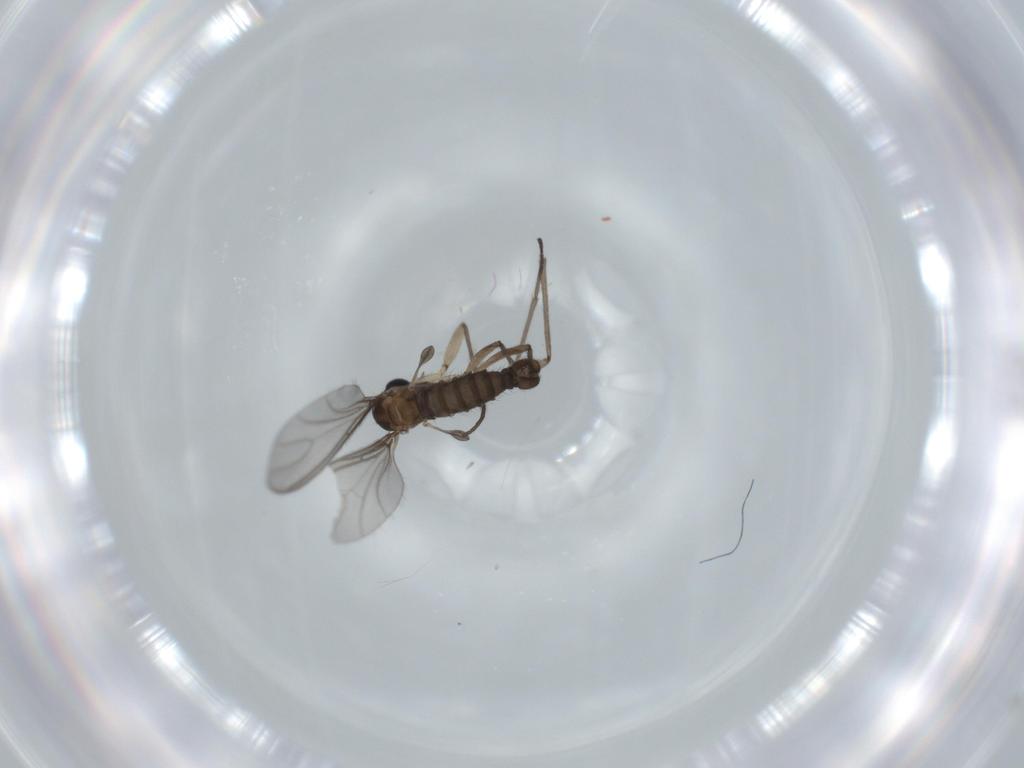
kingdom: Animalia
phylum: Arthropoda
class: Insecta
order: Diptera
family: Sciaridae
